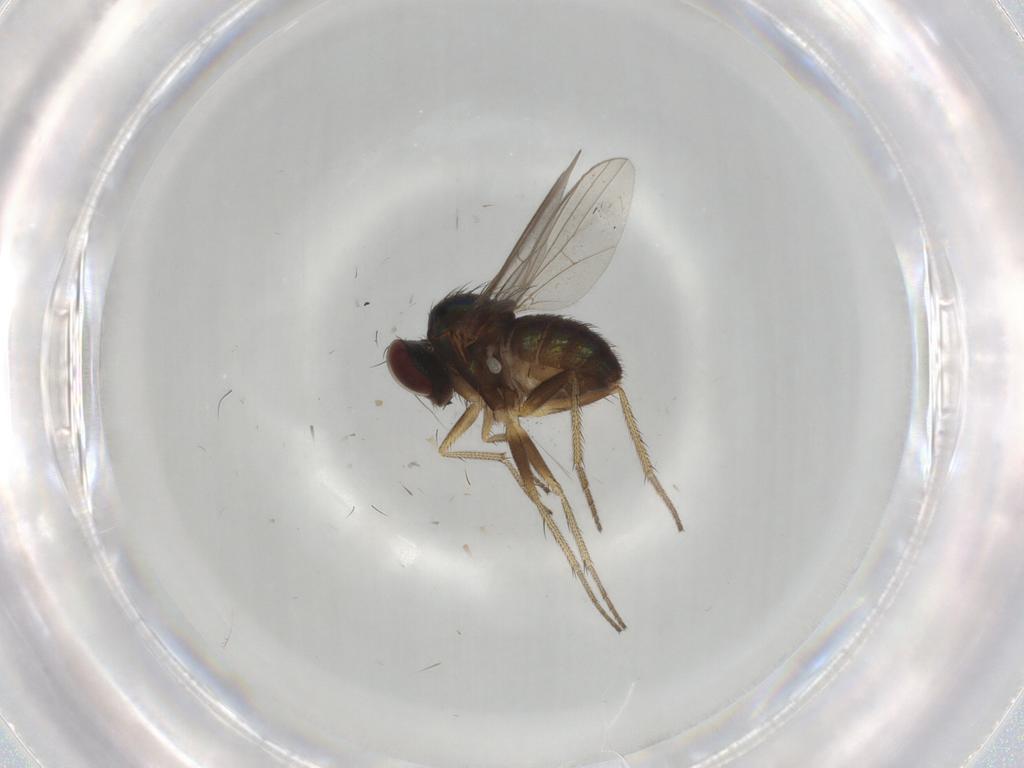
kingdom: Animalia
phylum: Arthropoda
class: Insecta
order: Diptera
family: Dolichopodidae
